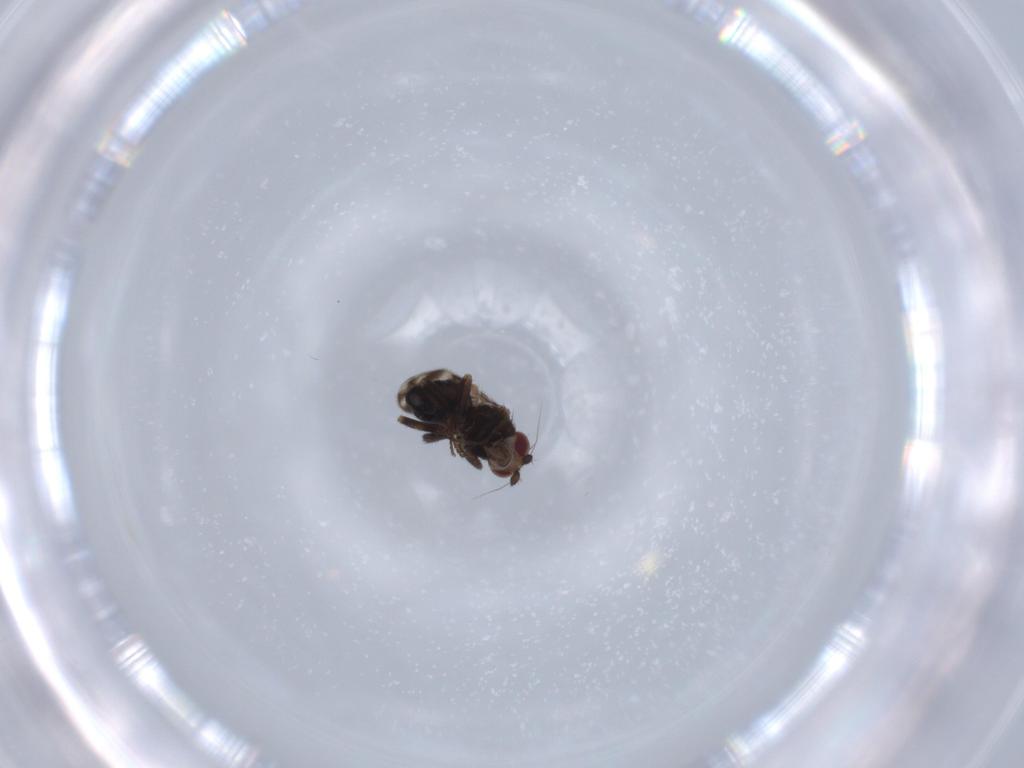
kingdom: Animalia
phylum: Arthropoda
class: Insecta
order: Diptera
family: Sphaeroceridae
